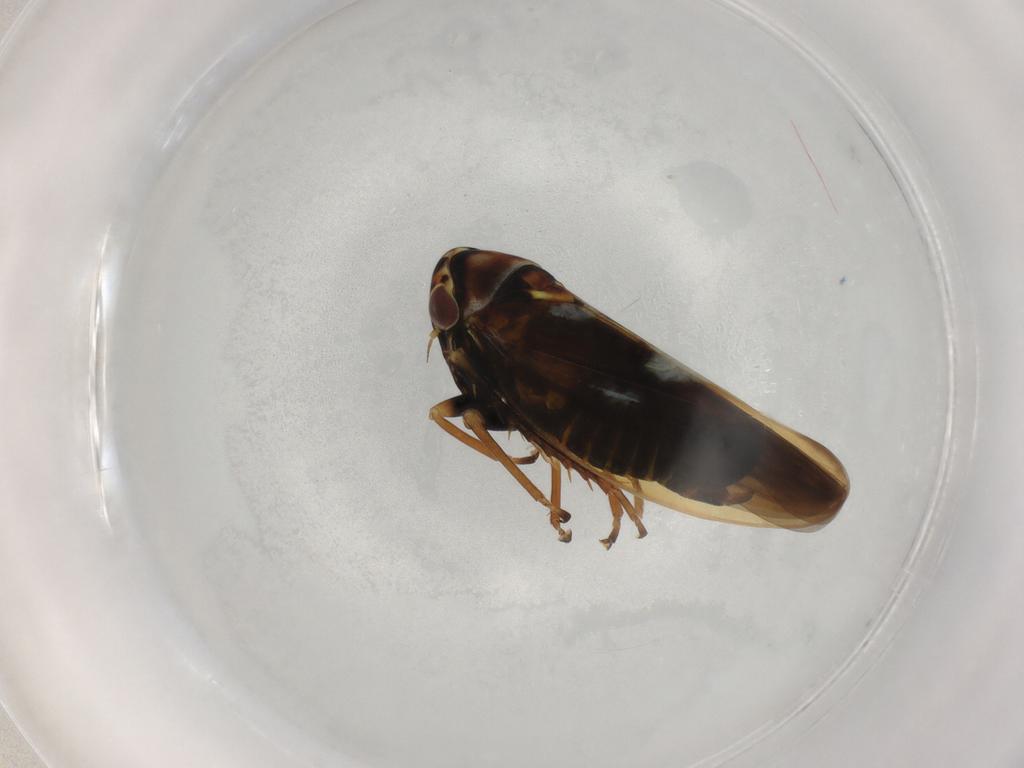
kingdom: Animalia
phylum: Arthropoda
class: Insecta
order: Hemiptera
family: Cicadellidae
